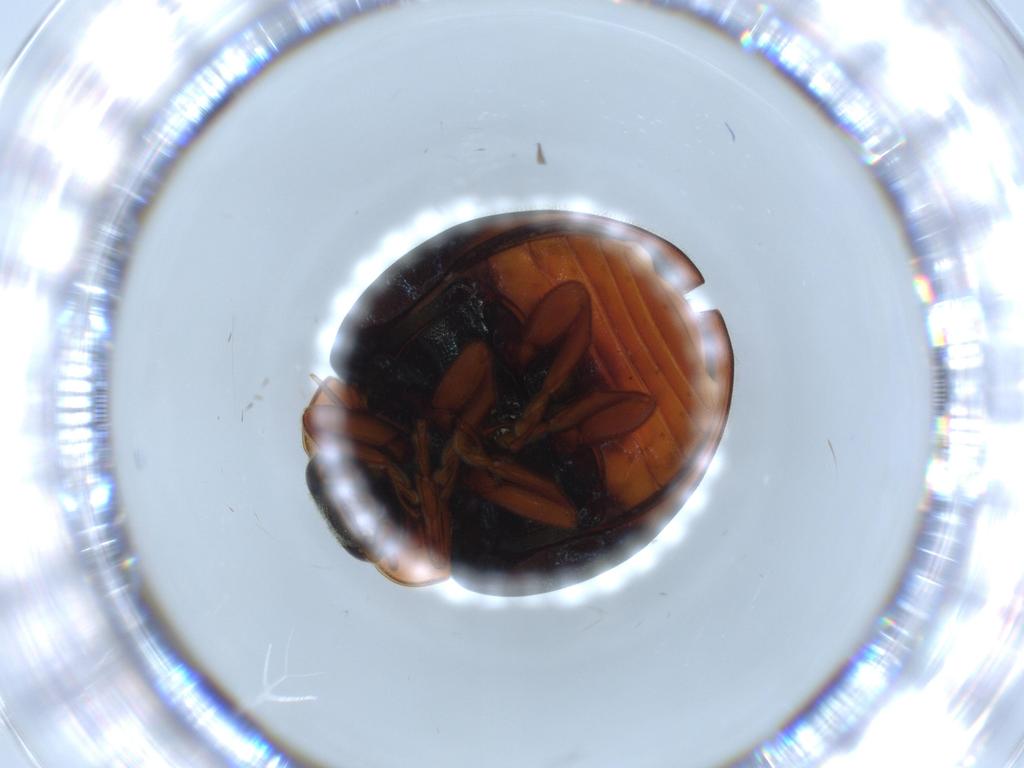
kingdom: Animalia
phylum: Arthropoda
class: Insecta
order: Coleoptera
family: Coccinellidae
